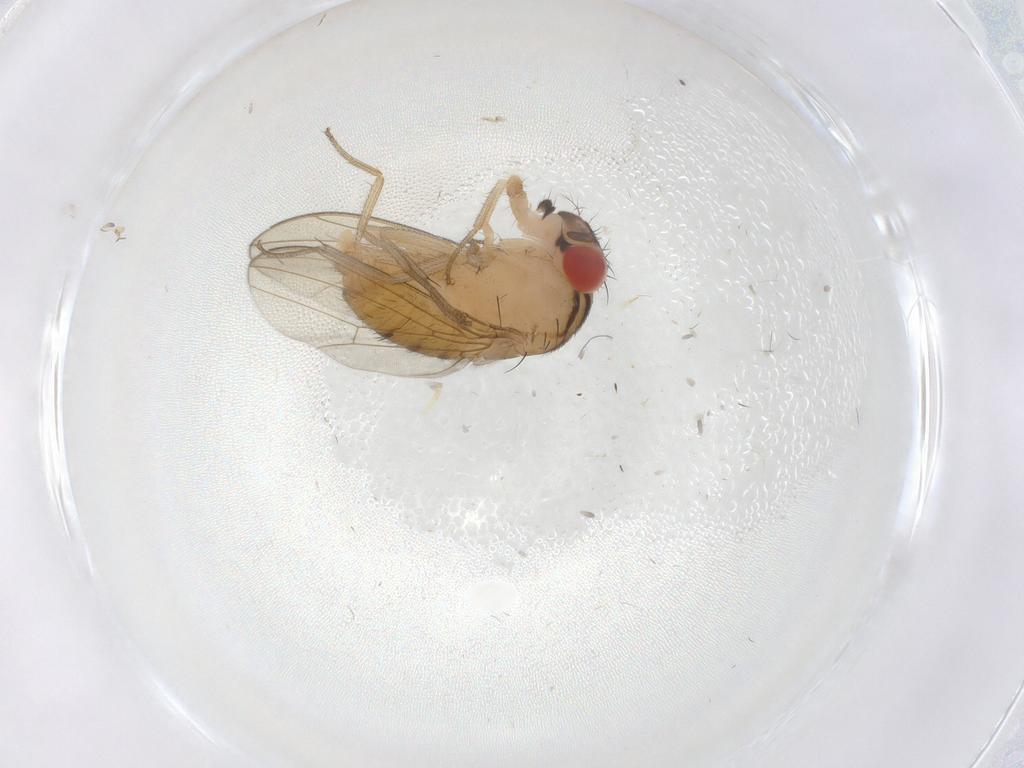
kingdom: Animalia
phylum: Arthropoda
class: Insecta
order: Diptera
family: Drosophilidae
